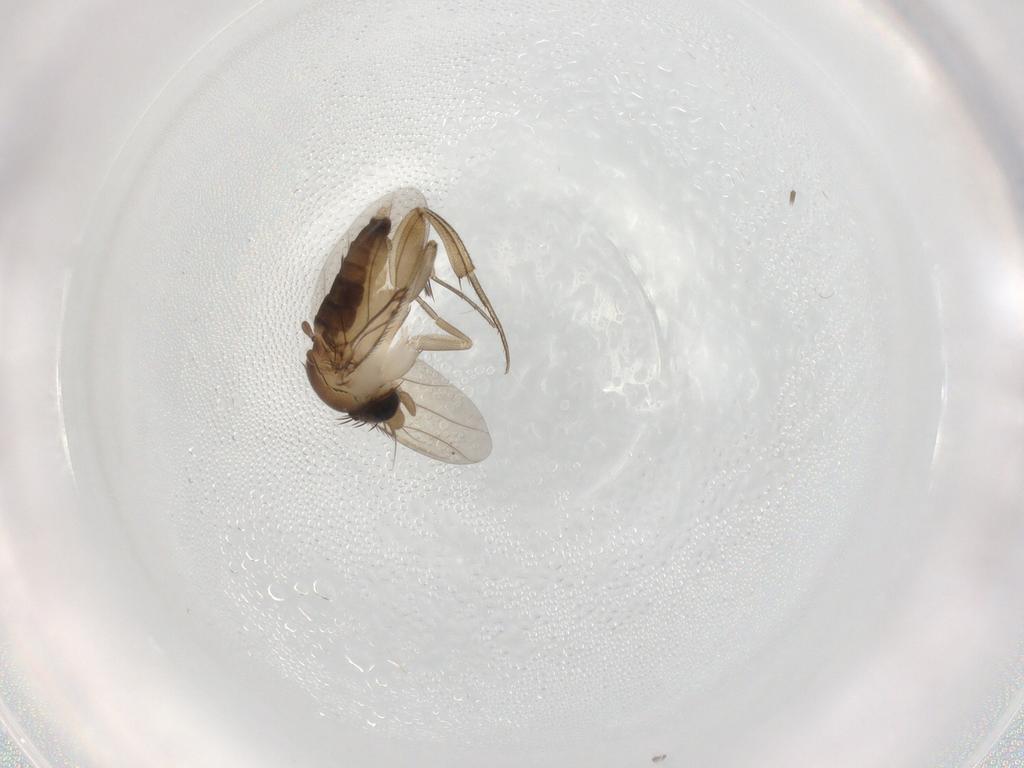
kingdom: Animalia
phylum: Arthropoda
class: Insecta
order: Diptera
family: Phoridae
